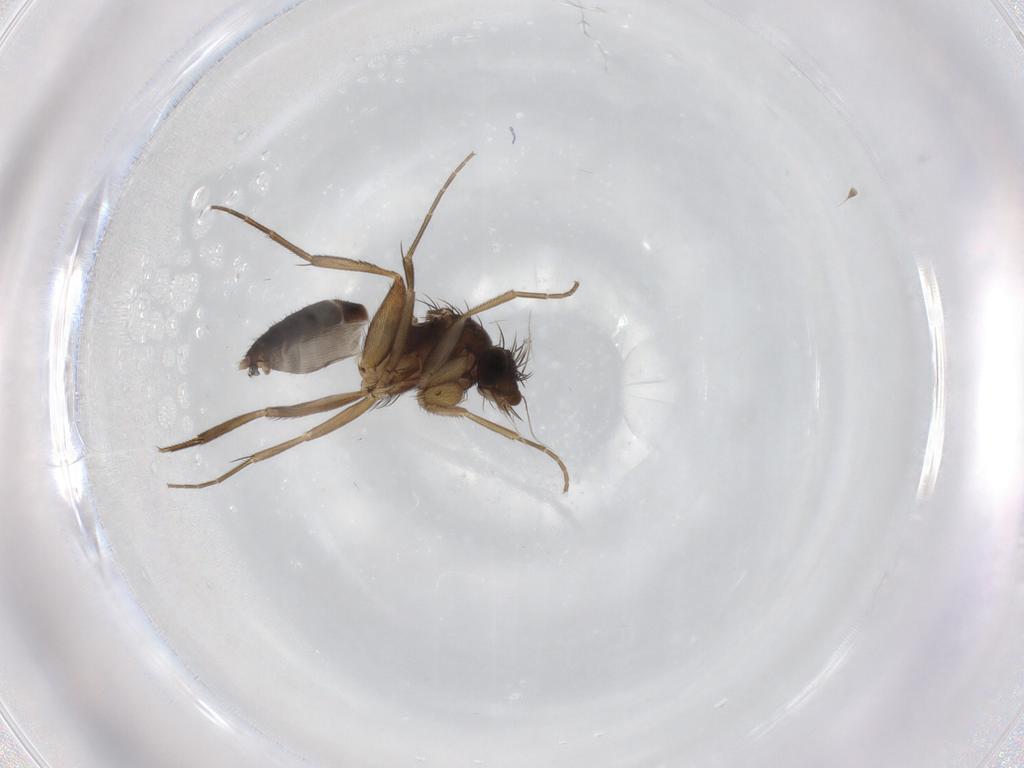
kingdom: Animalia
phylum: Arthropoda
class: Insecta
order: Diptera
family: Phoridae
